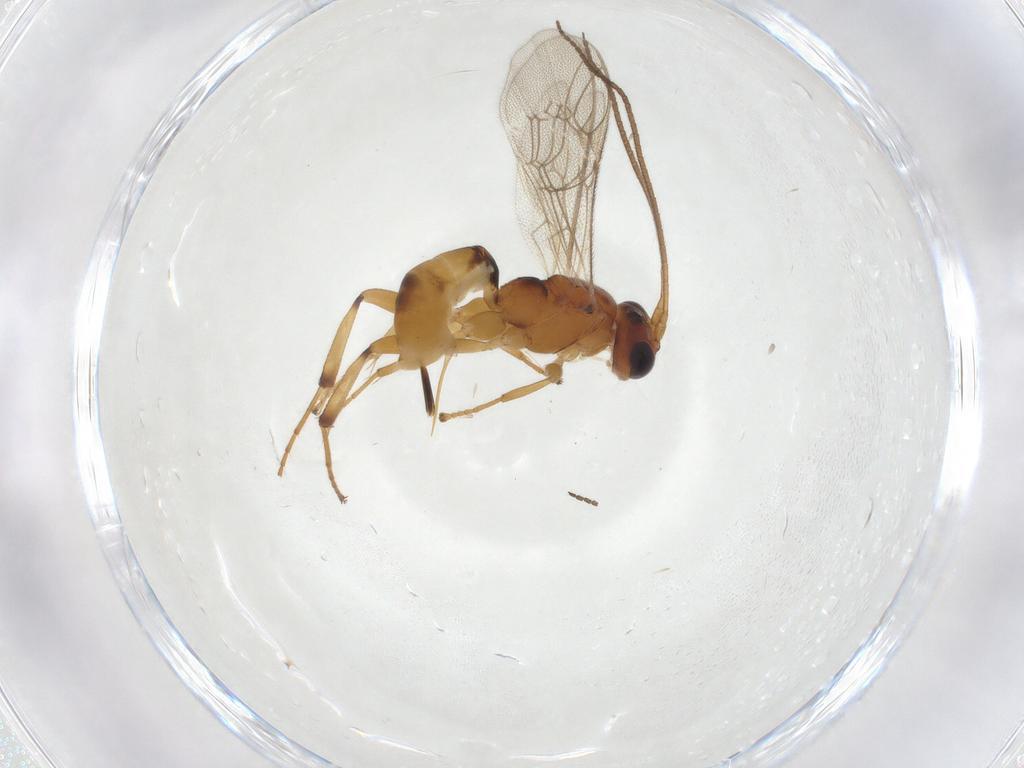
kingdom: Animalia
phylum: Arthropoda
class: Insecta
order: Hymenoptera
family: Ichneumonidae
